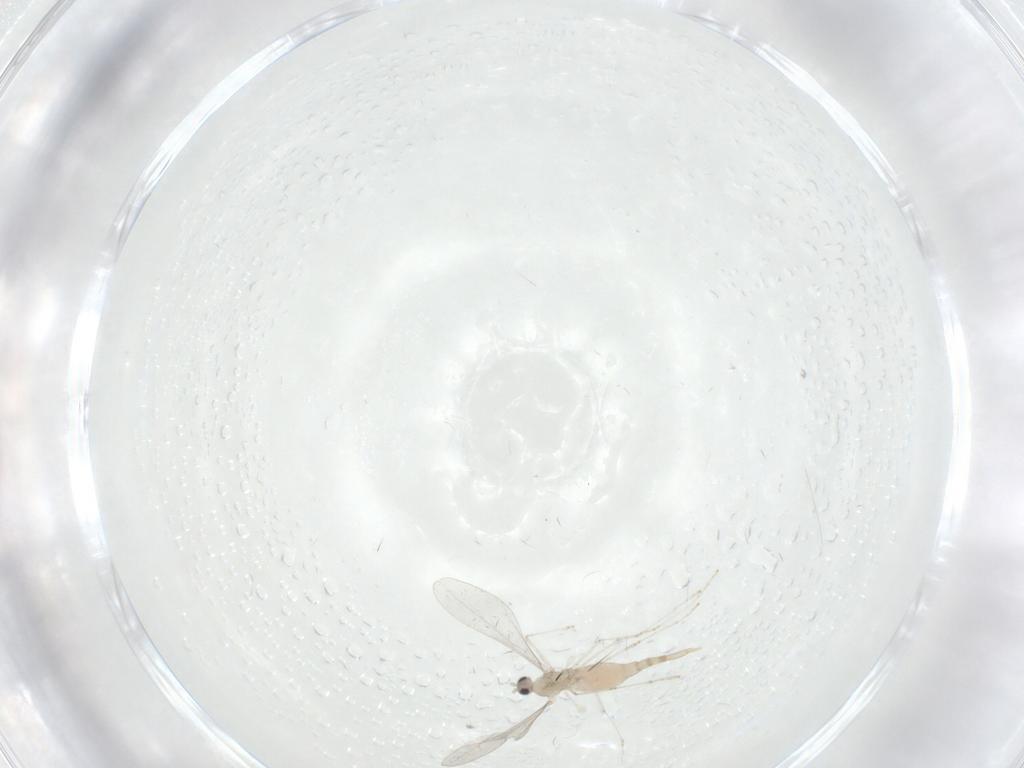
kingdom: Animalia
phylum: Arthropoda
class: Insecta
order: Diptera
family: Cecidomyiidae
